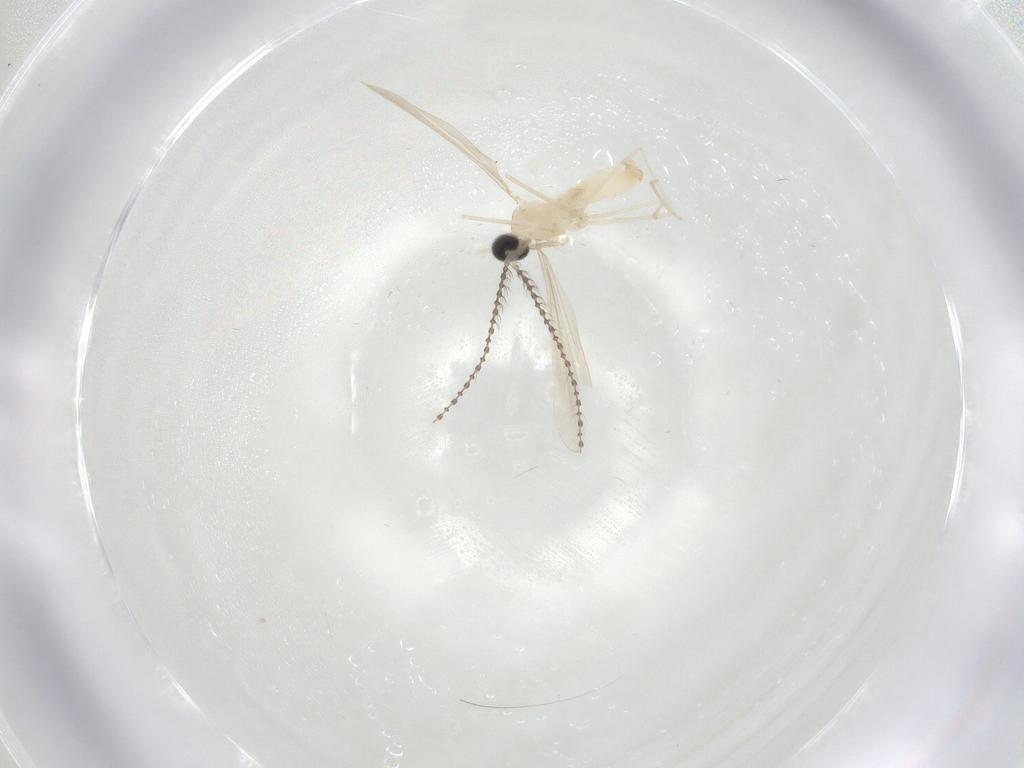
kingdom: Animalia
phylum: Arthropoda
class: Insecta
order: Diptera
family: Cecidomyiidae
